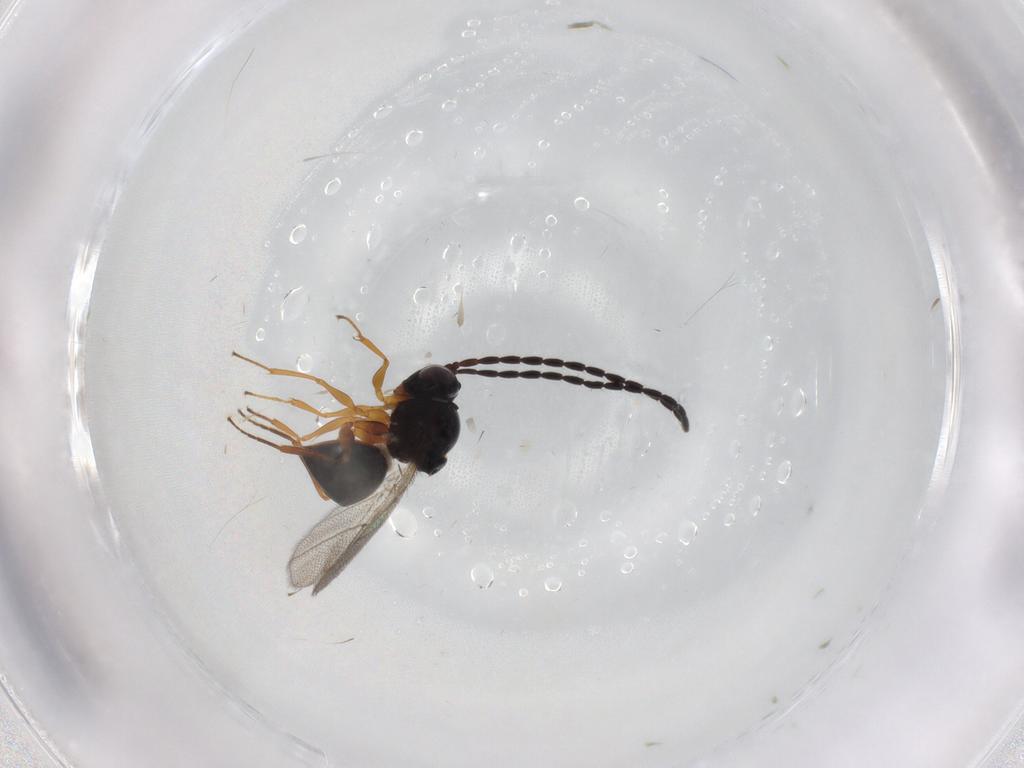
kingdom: Animalia
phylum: Arthropoda
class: Insecta
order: Hymenoptera
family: Figitidae
